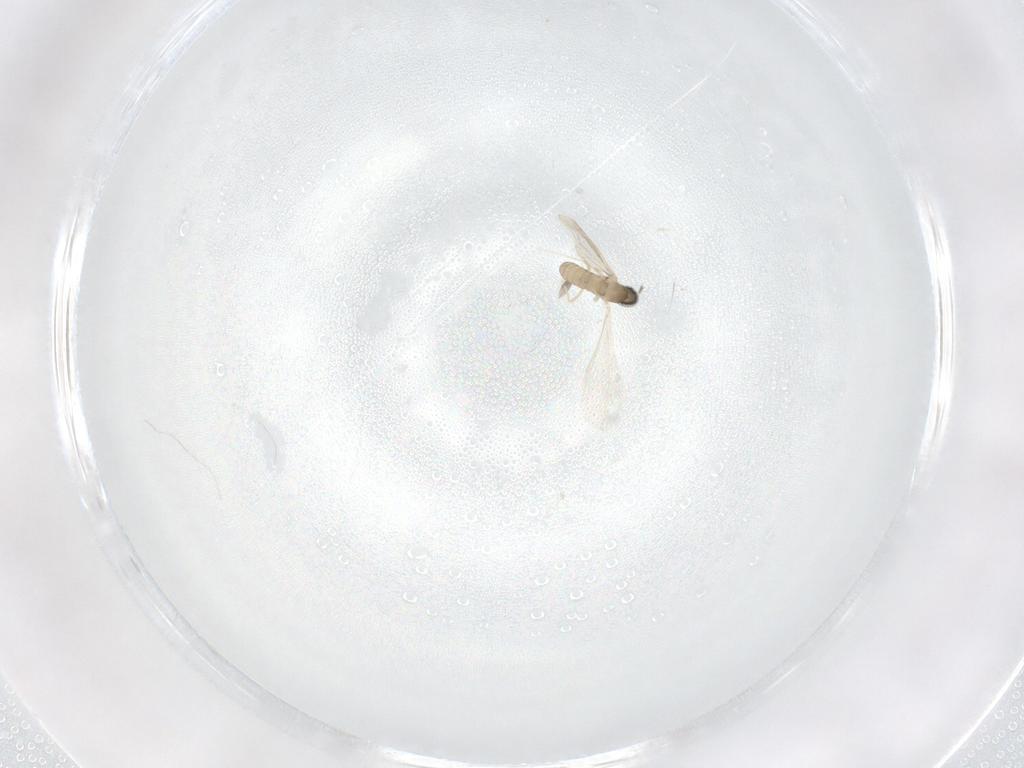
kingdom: Animalia
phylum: Arthropoda
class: Insecta
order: Diptera
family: Cecidomyiidae
